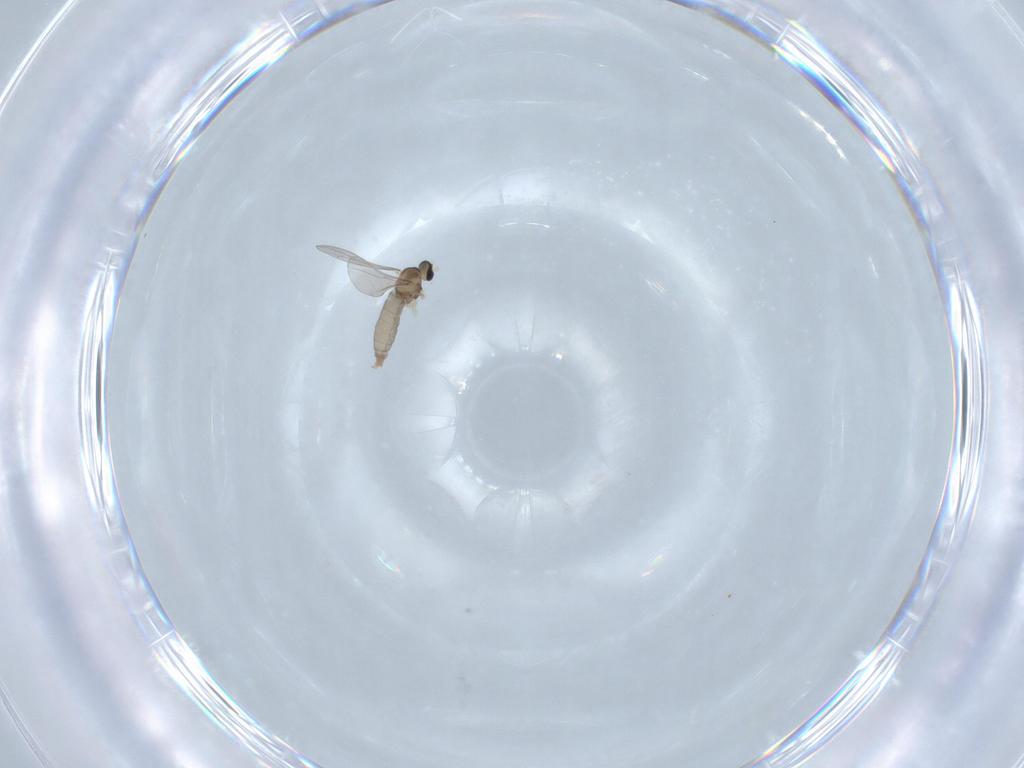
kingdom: Animalia
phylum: Arthropoda
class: Insecta
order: Diptera
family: Cecidomyiidae
